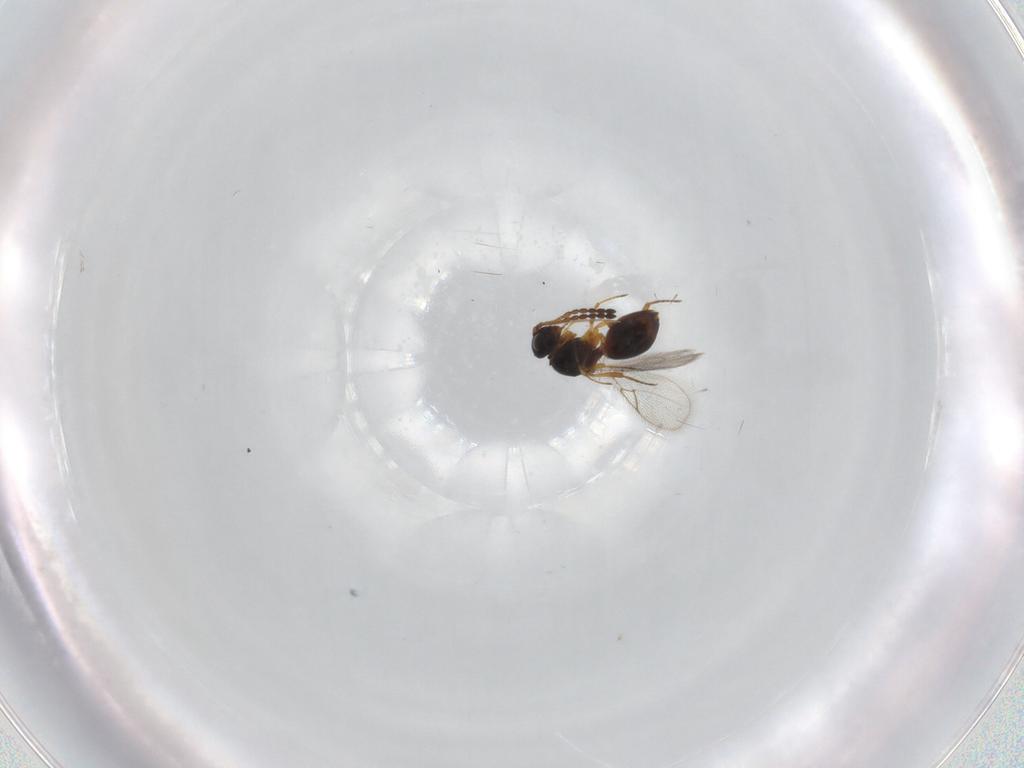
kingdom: Animalia
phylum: Arthropoda
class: Insecta
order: Hymenoptera
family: Figitidae
